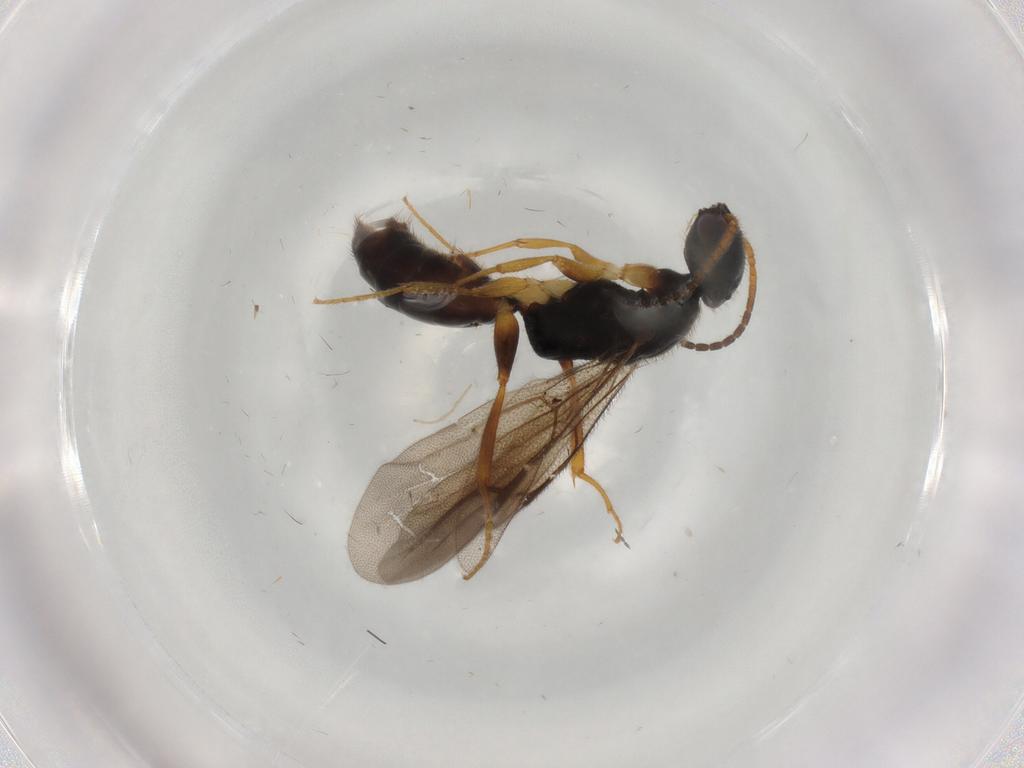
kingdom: Animalia
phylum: Arthropoda
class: Insecta
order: Hymenoptera
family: Bethylidae
